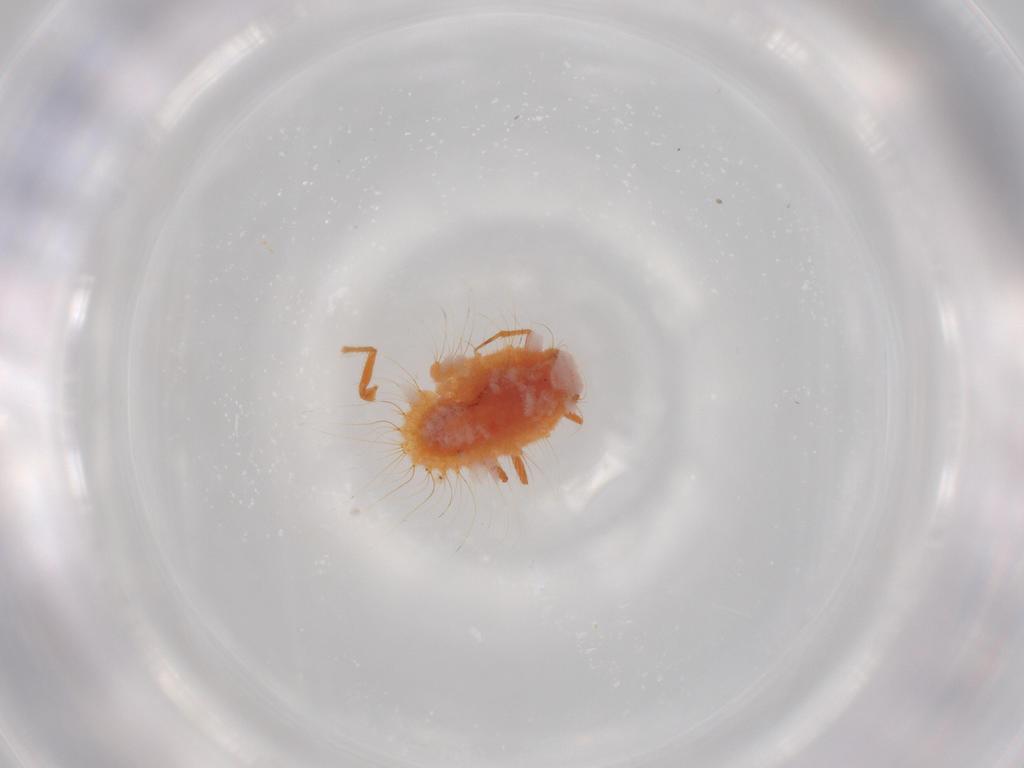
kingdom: Animalia
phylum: Arthropoda
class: Insecta
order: Hemiptera
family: Coccoidea_incertae_sedis
